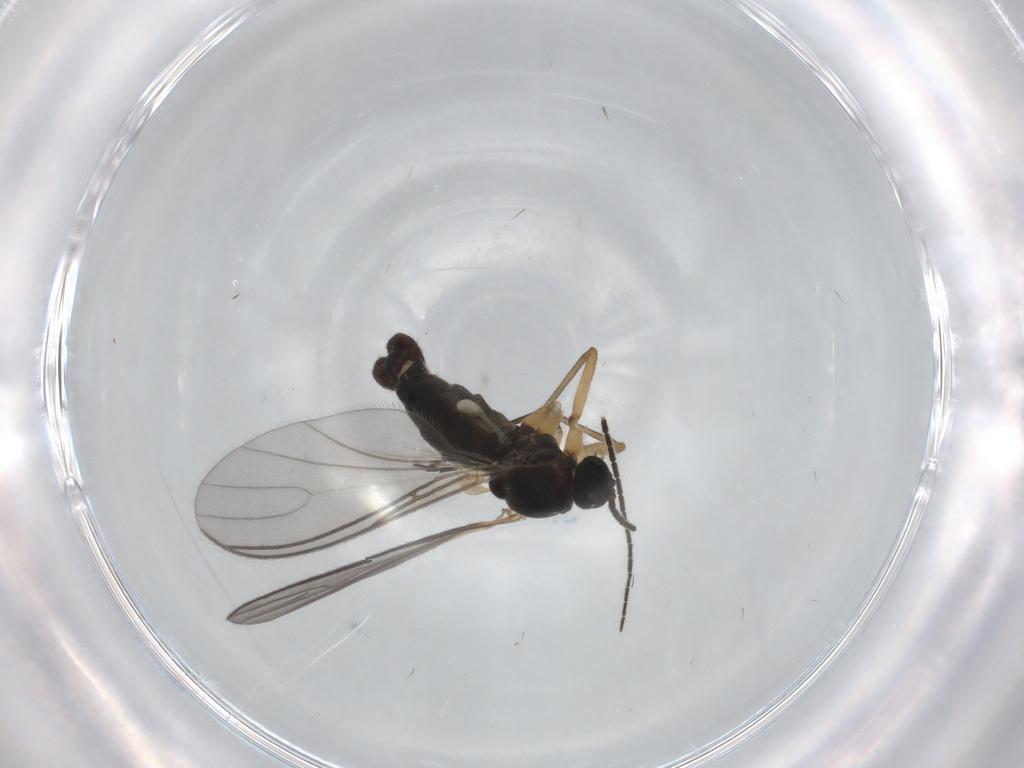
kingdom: Animalia
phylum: Arthropoda
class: Insecta
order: Diptera
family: Sciaridae
